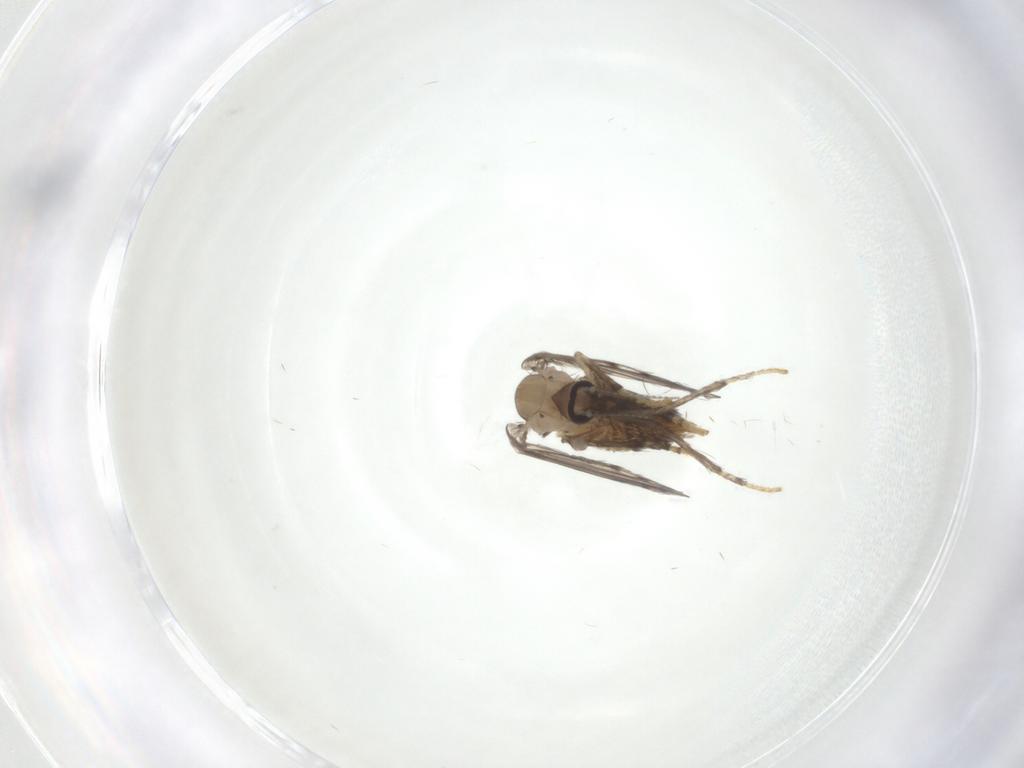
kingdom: Animalia
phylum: Arthropoda
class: Insecta
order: Diptera
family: Psychodidae
